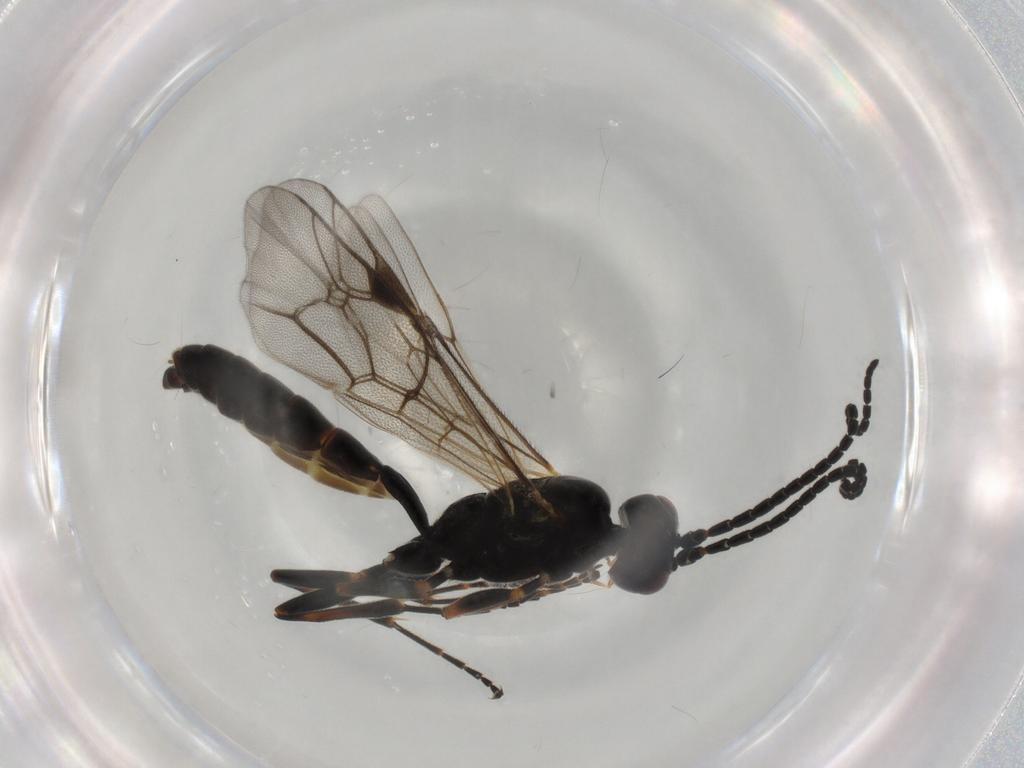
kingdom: Animalia
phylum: Arthropoda
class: Insecta
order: Hymenoptera
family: Ichneumonidae
